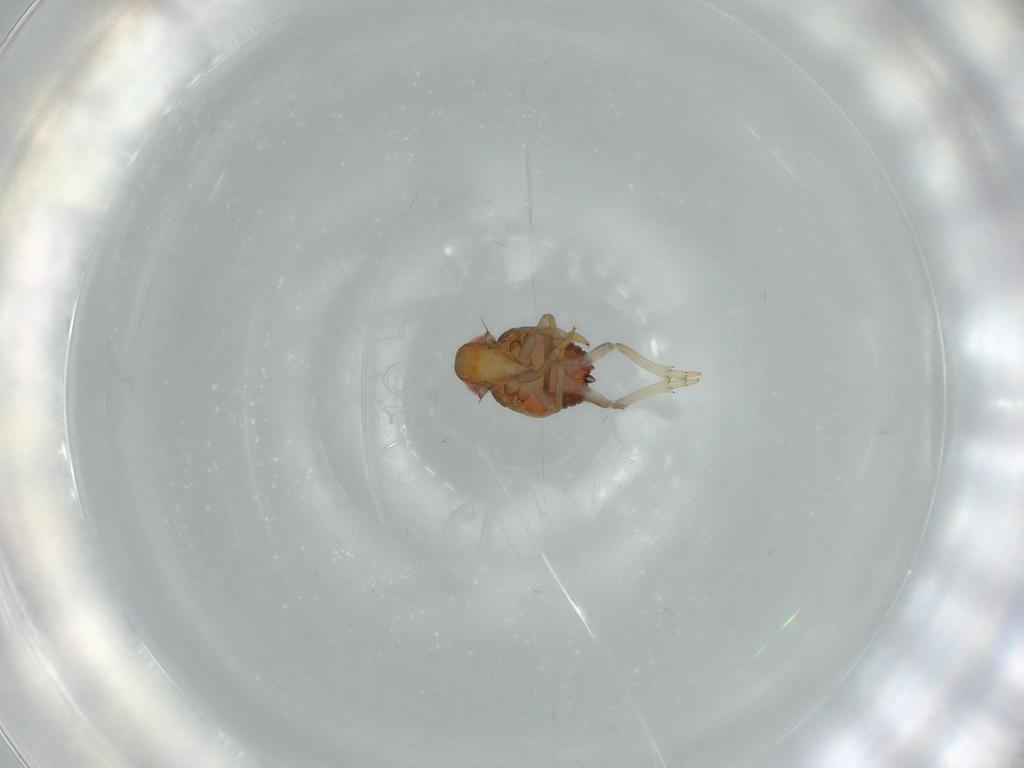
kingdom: Animalia
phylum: Arthropoda
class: Insecta
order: Hemiptera
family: Issidae
